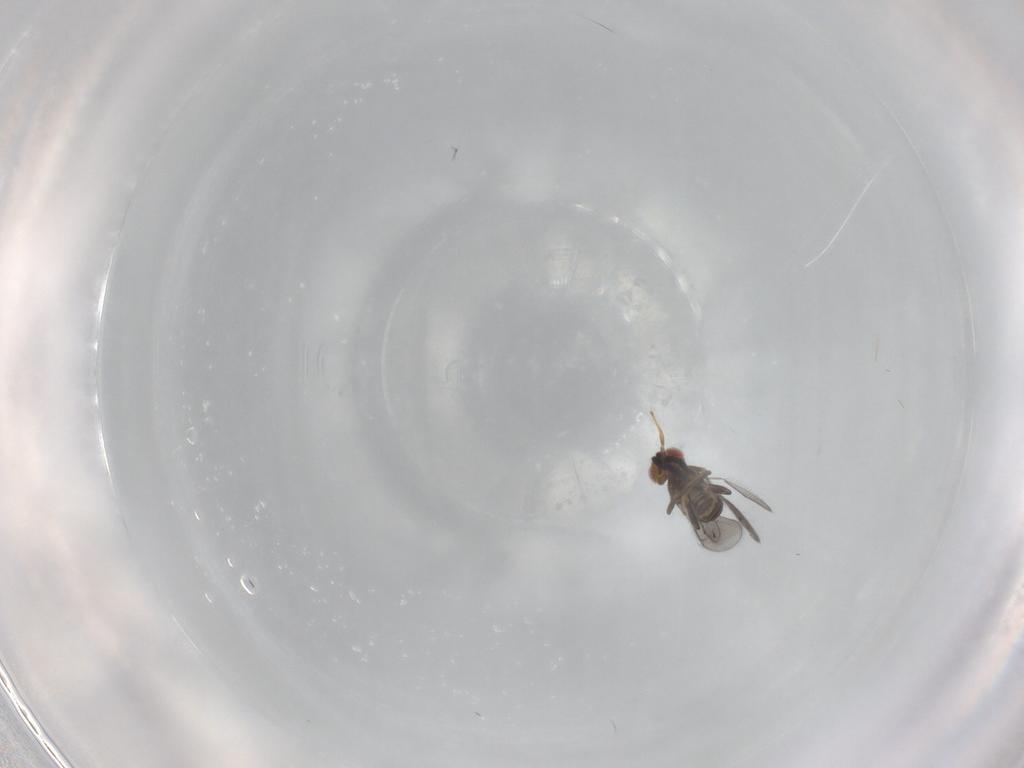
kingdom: Animalia
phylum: Arthropoda
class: Insecta
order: Hymenoptera
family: Aphelinidae
